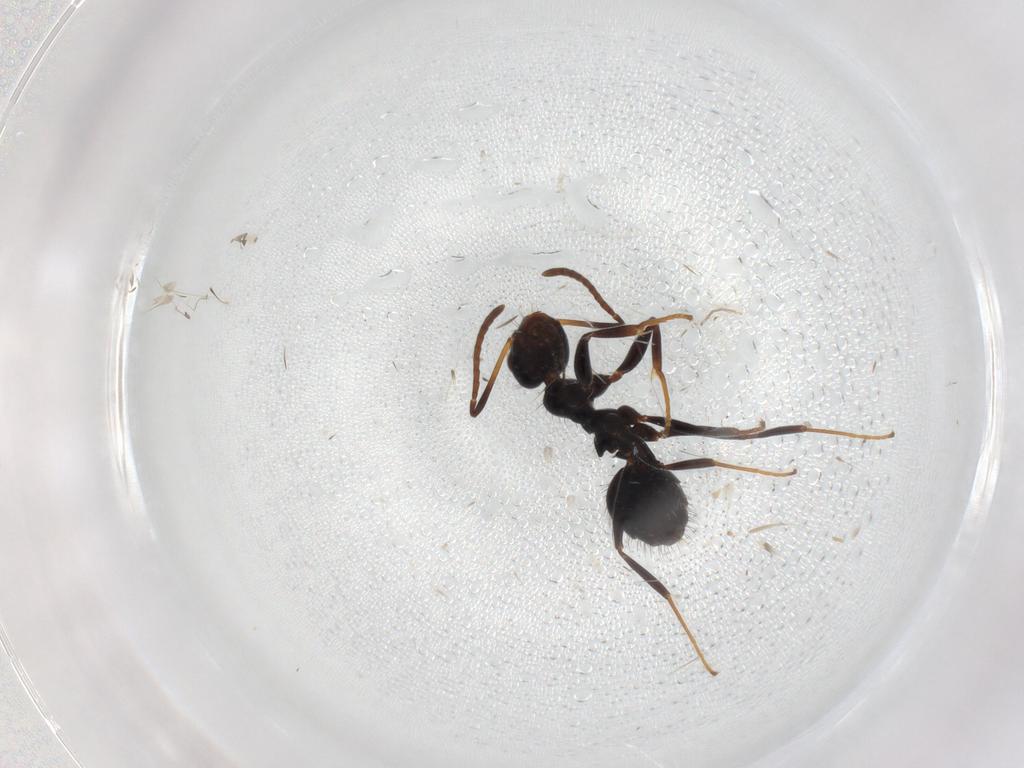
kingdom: Animalia
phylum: Arthropoda
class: Insecta
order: Hymenoptera
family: Formicidae
